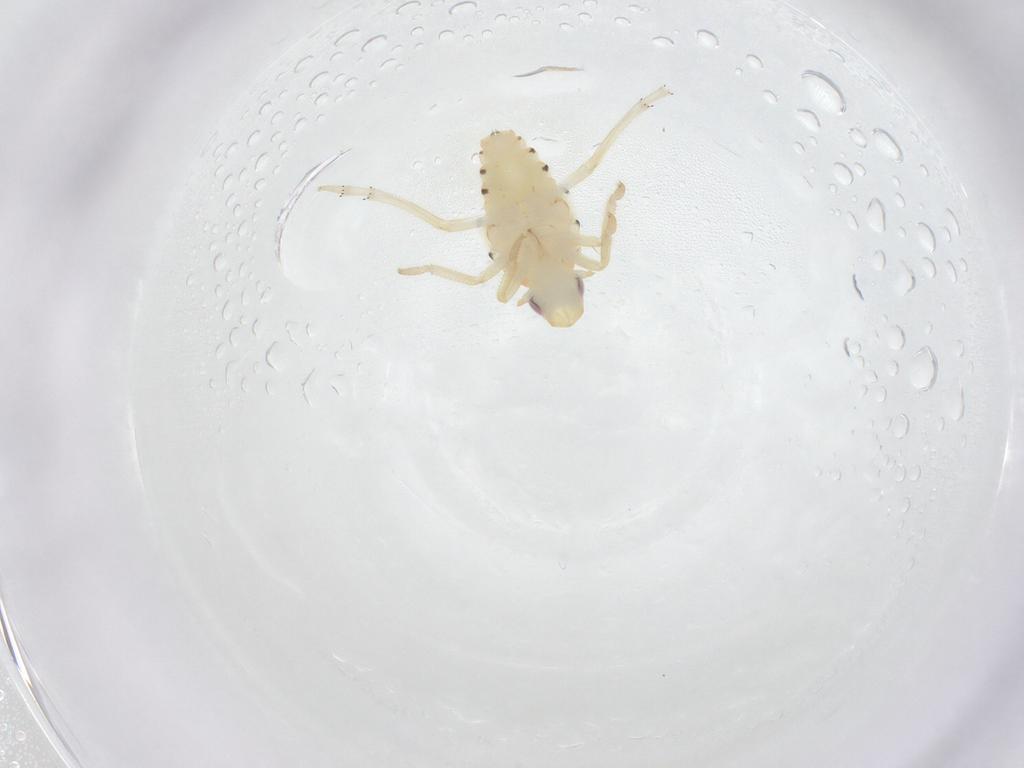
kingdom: Animalia
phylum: Arthropoda
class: Insecta
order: Hemiptera
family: Tropiduchidae
